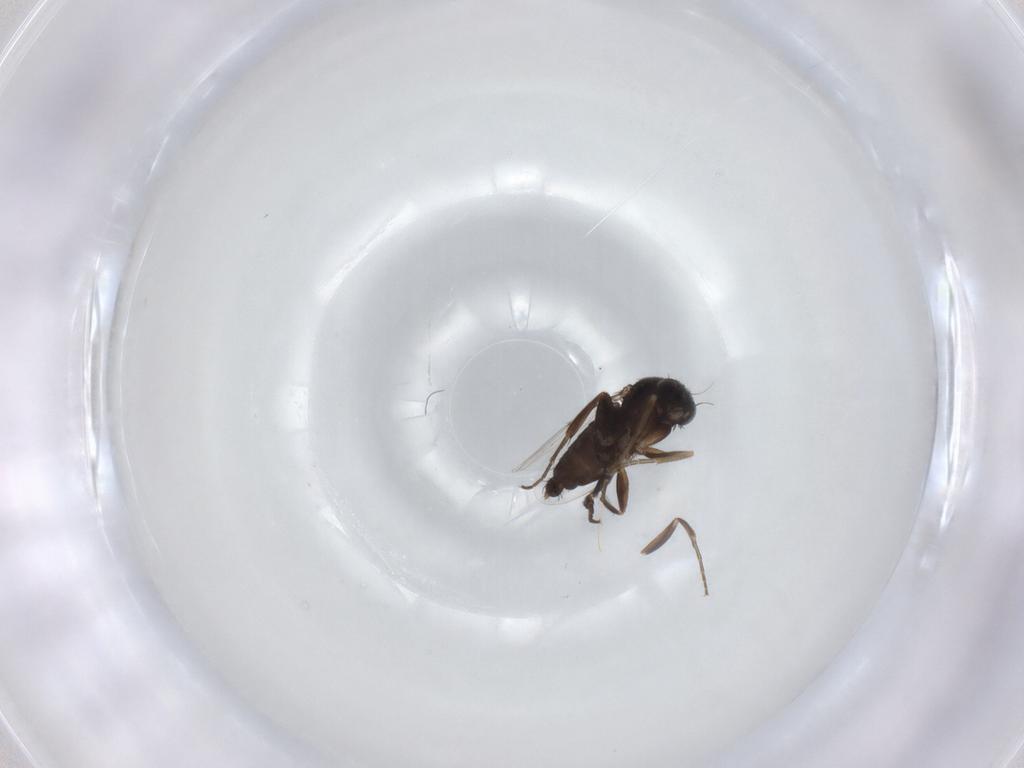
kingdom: Animalia
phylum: Arthropoda
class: Insecta
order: Diptera
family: Phoridae
